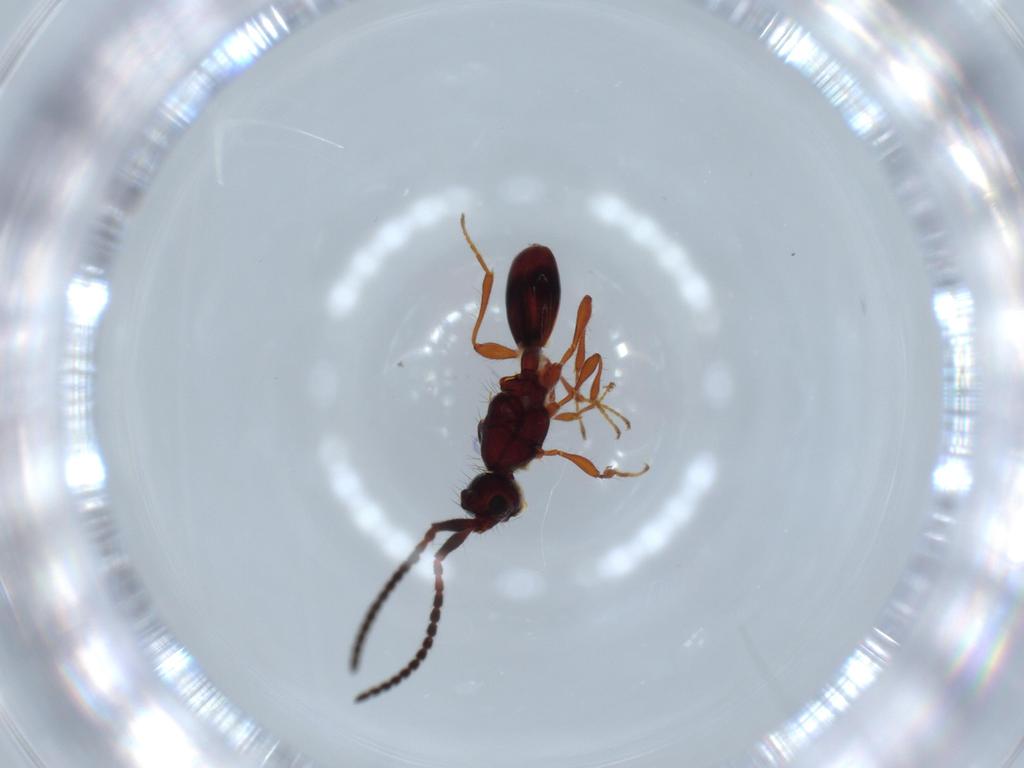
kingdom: Animalia
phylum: Arthropoda
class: Insecta
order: Hymenoptera
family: Diapriidae
